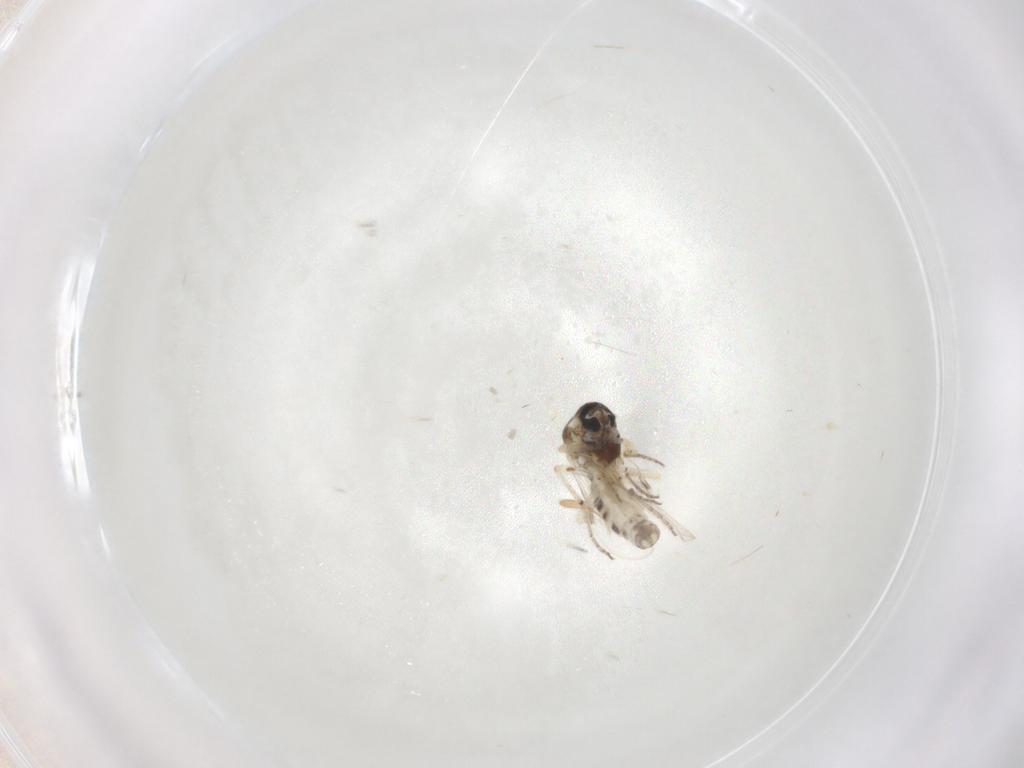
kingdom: Animalia
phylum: Arthropoda
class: Insecta
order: Diptera
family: Ceratopogonidae
